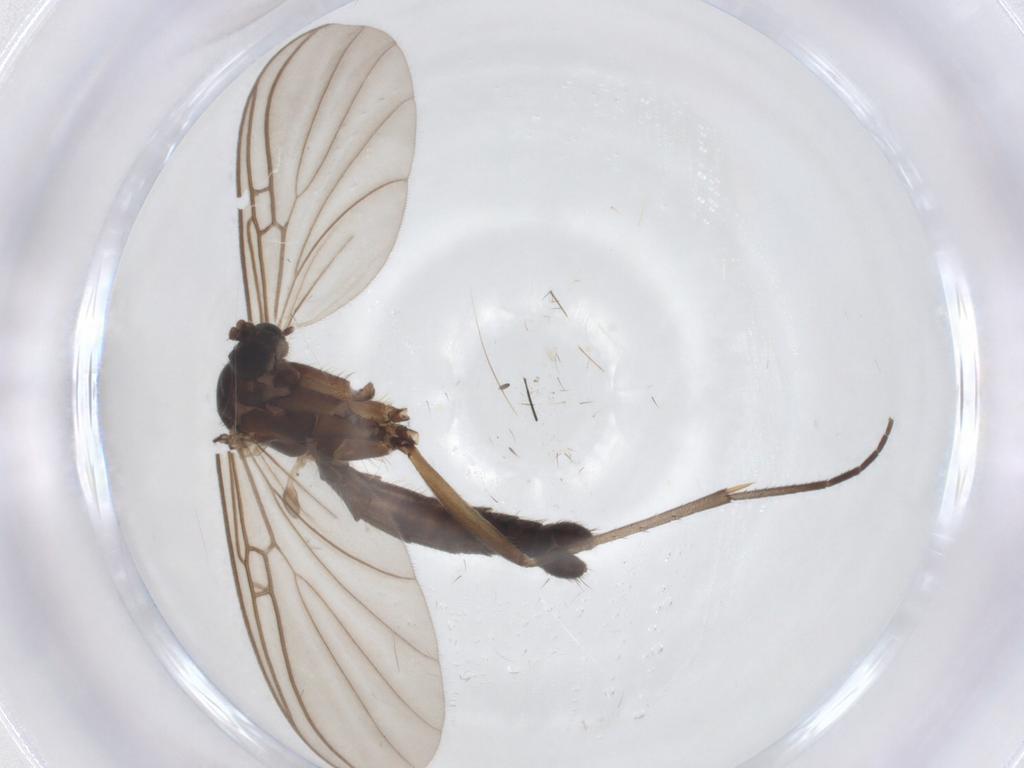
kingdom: Animalia
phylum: Arthropoda
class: Insecta
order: Diptera
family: Mycetophilidae
